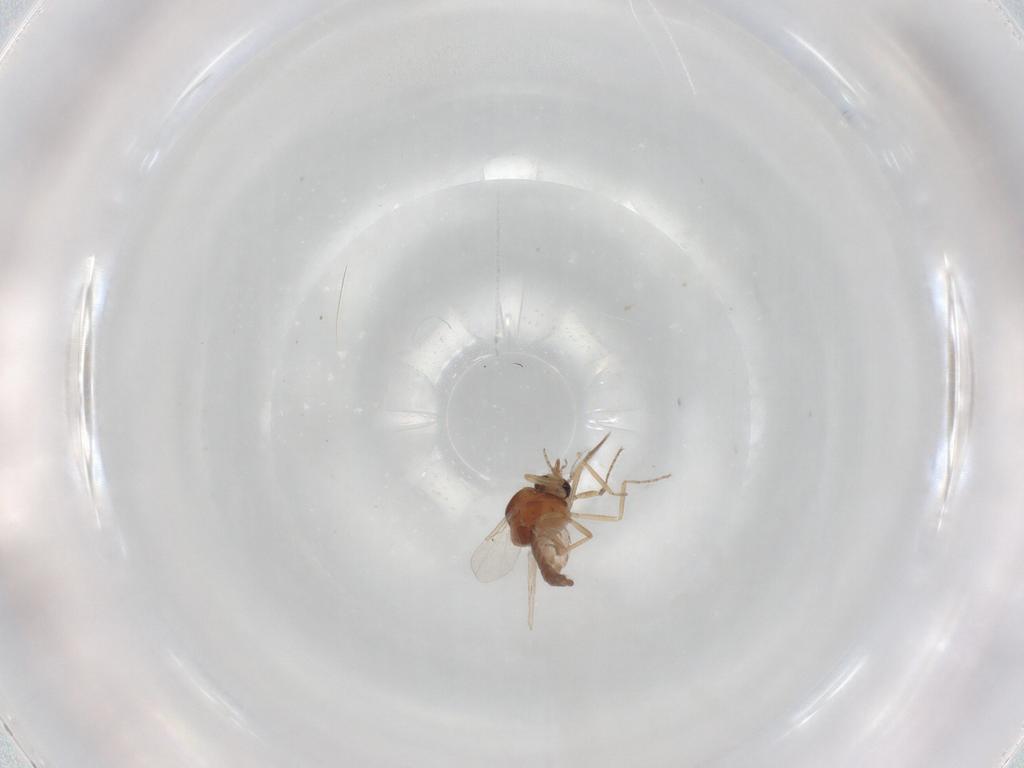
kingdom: Animalia
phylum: Arthropoda
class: Insecta
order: Diptera
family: Ceratopogonidae
